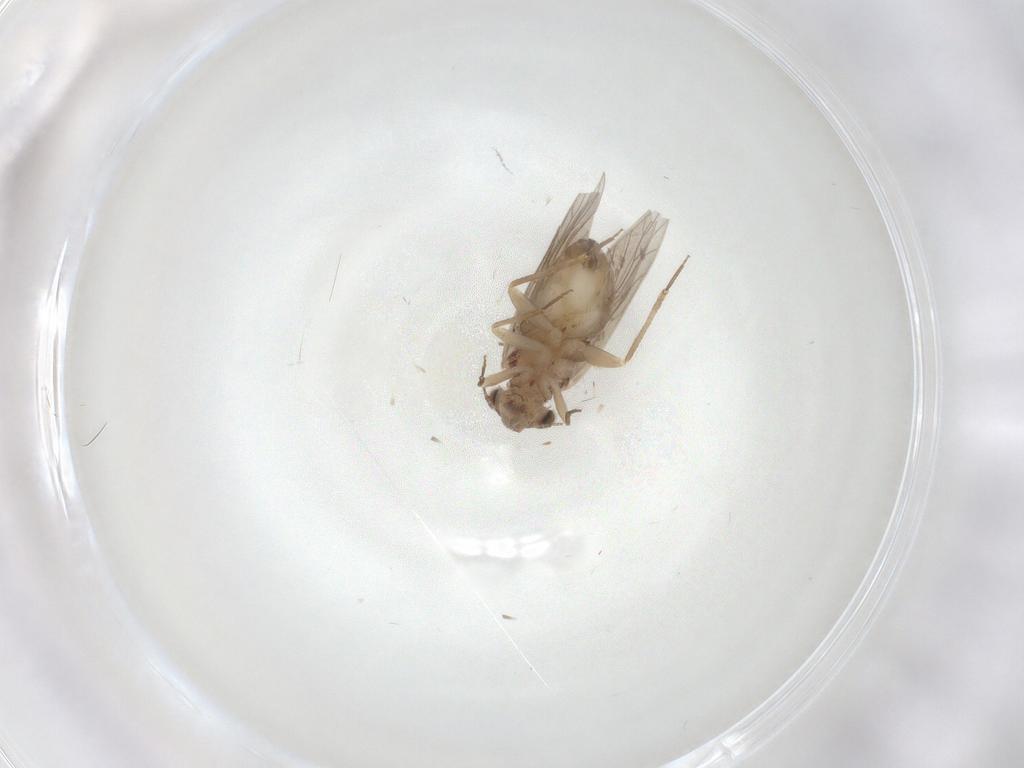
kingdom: Animalia
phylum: Arthropoda
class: Insecta
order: Psocodea
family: Lepidopsocidae
